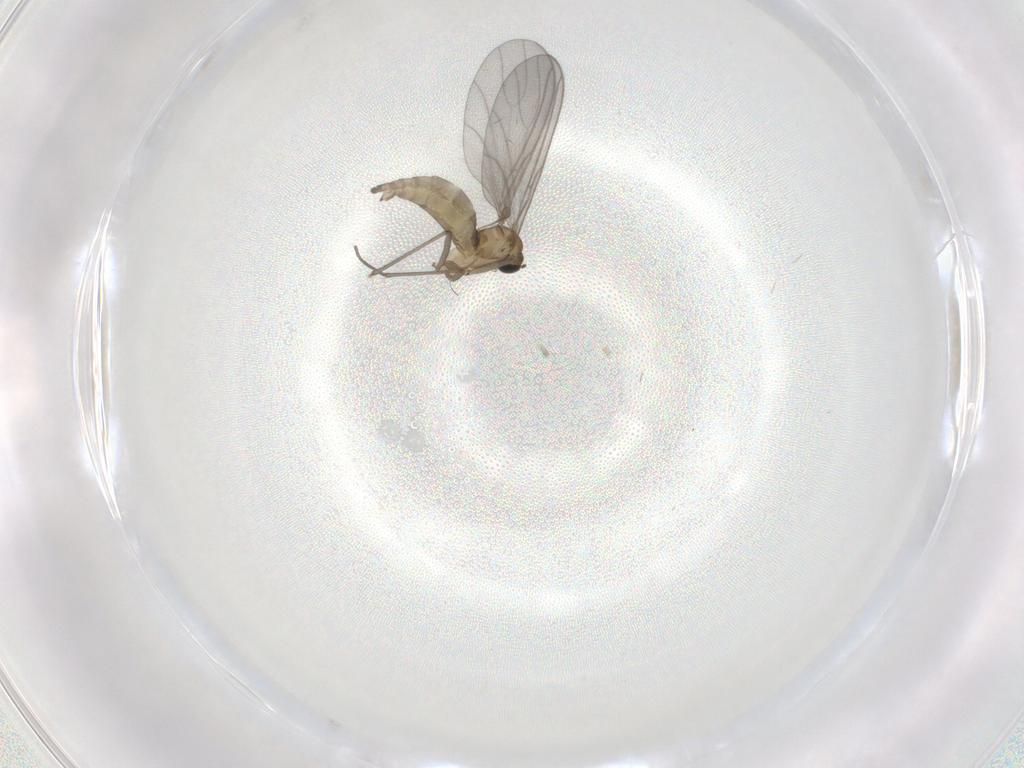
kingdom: Animalia
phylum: Arthropoda
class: Insecta
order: Diptera
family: Sciaridae
